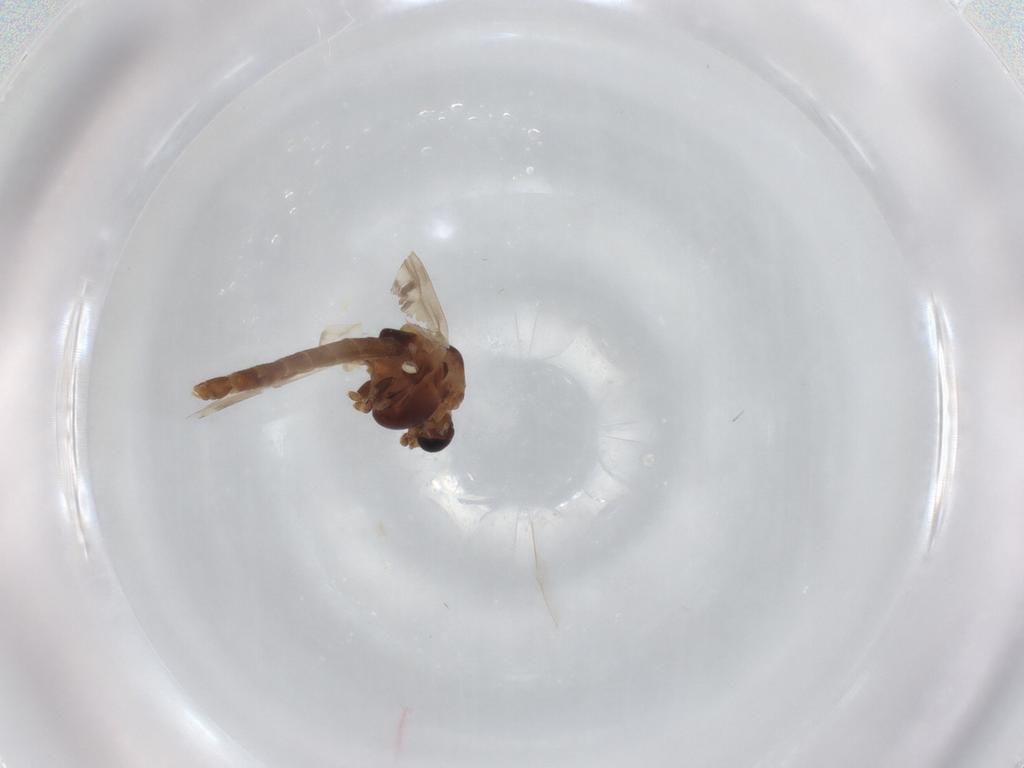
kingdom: Animalia
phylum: Arthropoda
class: Insecta
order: Diptera
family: Chironomidae
